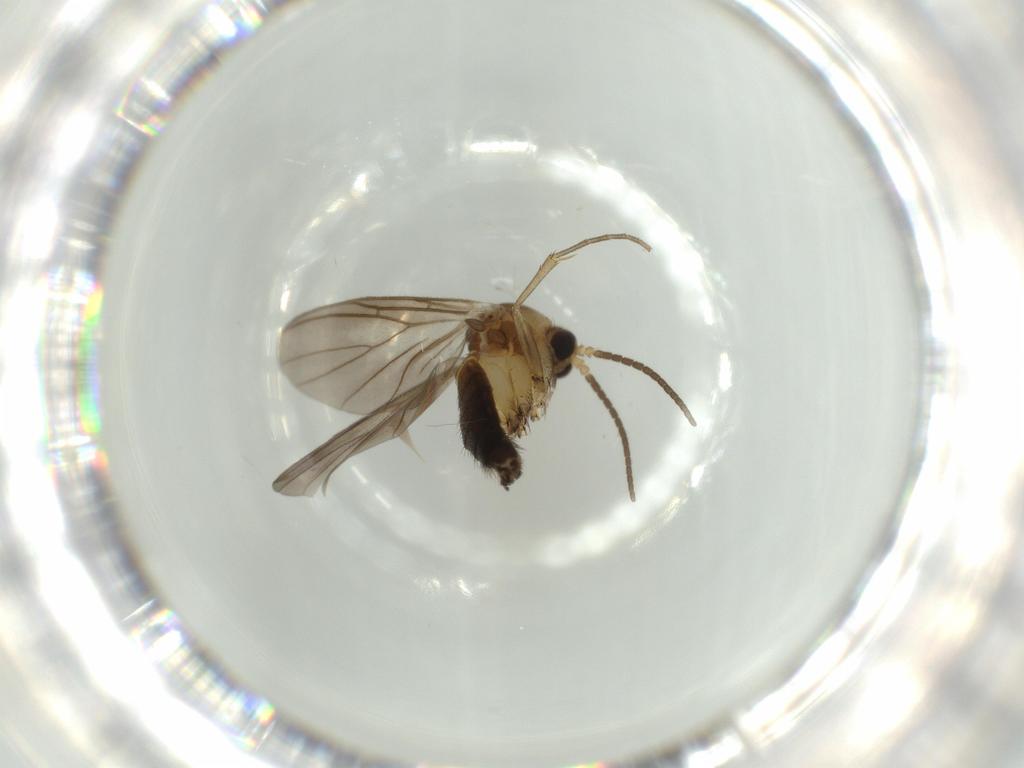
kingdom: Animalia
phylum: Arthropoda
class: Insecta
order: Diptera
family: Mycetophilidae
